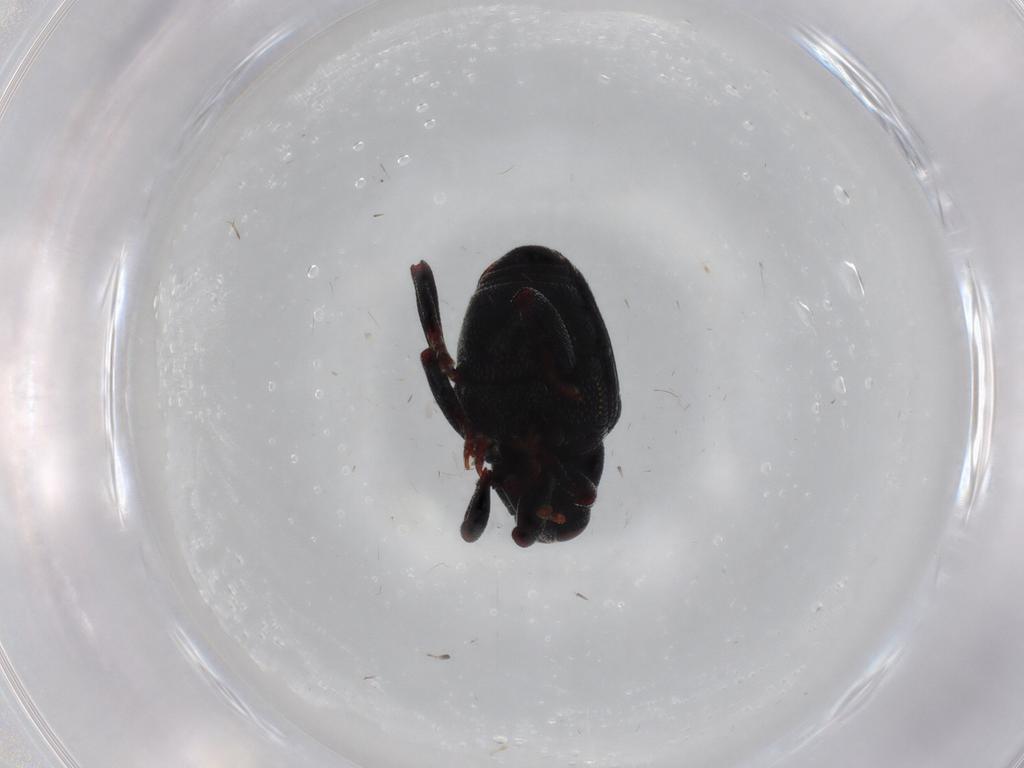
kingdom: Animalia
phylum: Arthropoda
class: Insecta
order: Coleoptera
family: Curculionidae
